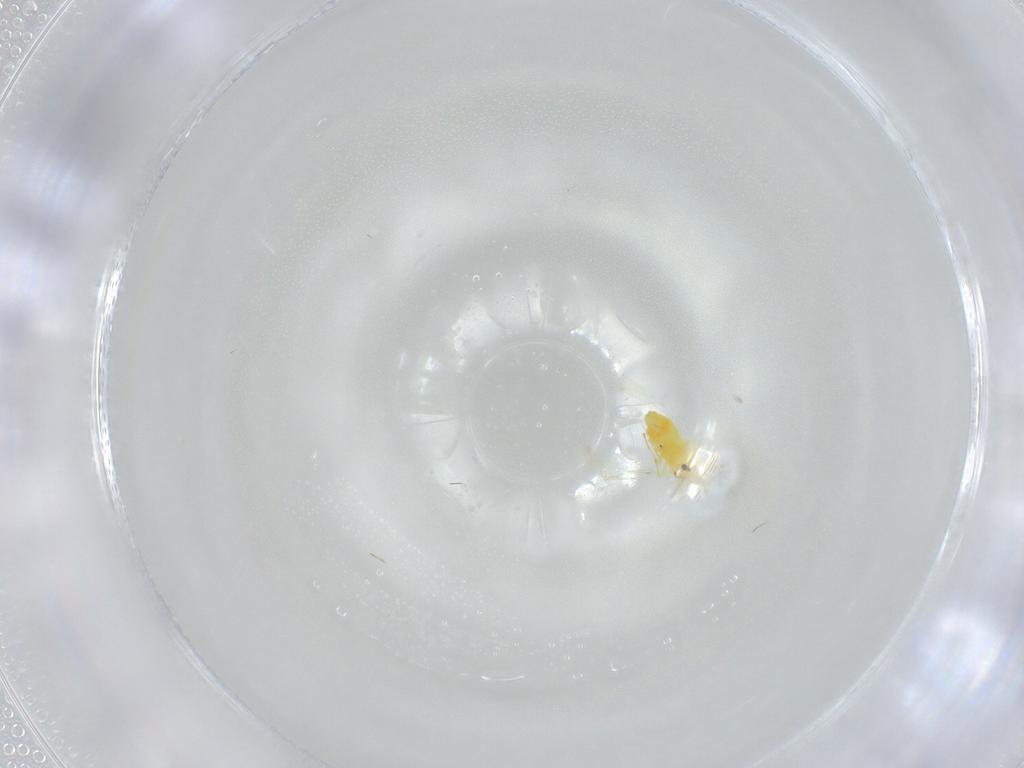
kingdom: Animalia
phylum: Arthropoda
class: Insecta
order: Hemiptera
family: Aleyrodidae
